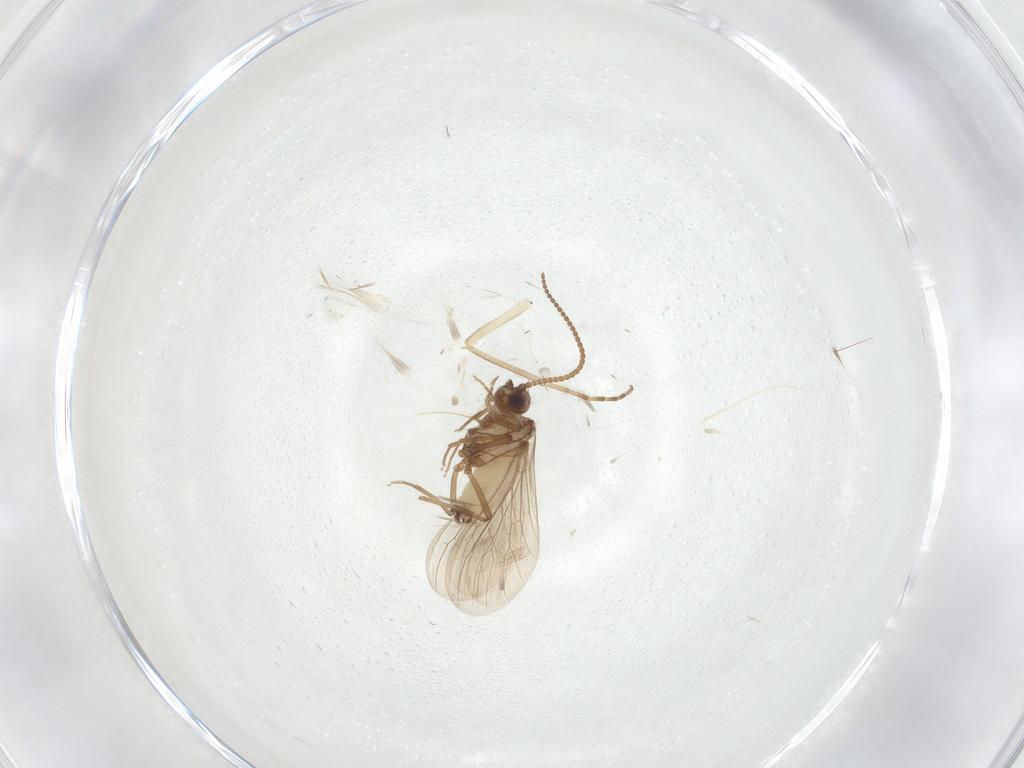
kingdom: Animalia
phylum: Arthropoda
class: Insecta
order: Neuroptera
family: Coniopterygidae
